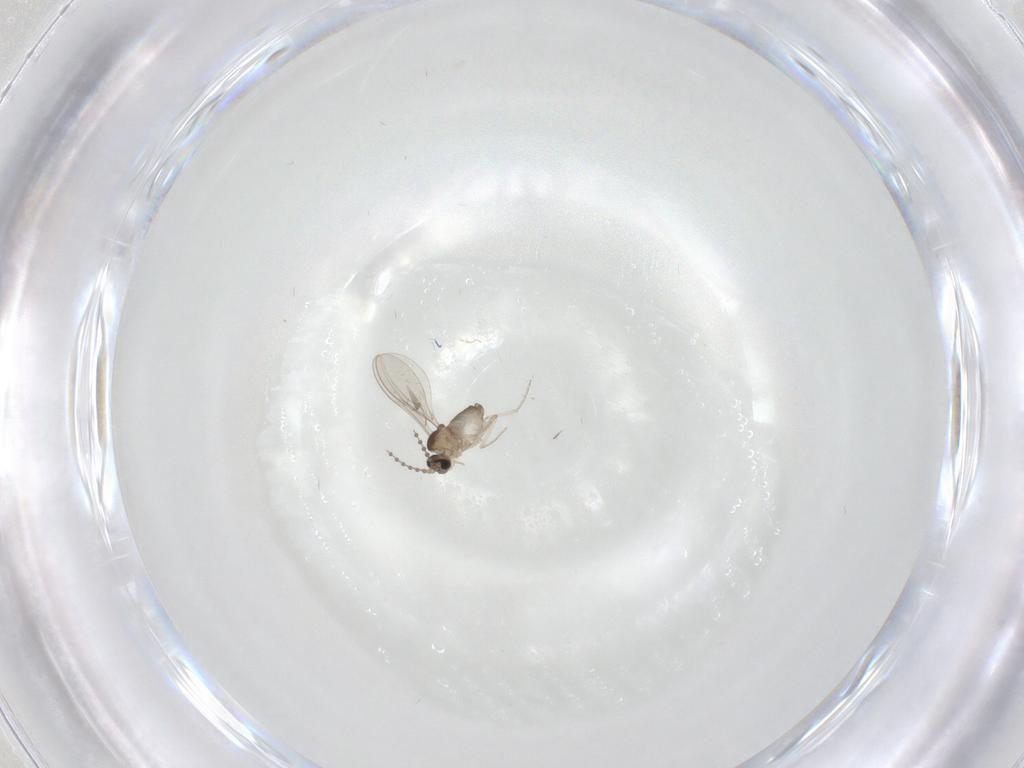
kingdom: Animalia
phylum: Arthropoda
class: Insecta
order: Diptera
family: Cecidomyiidae
